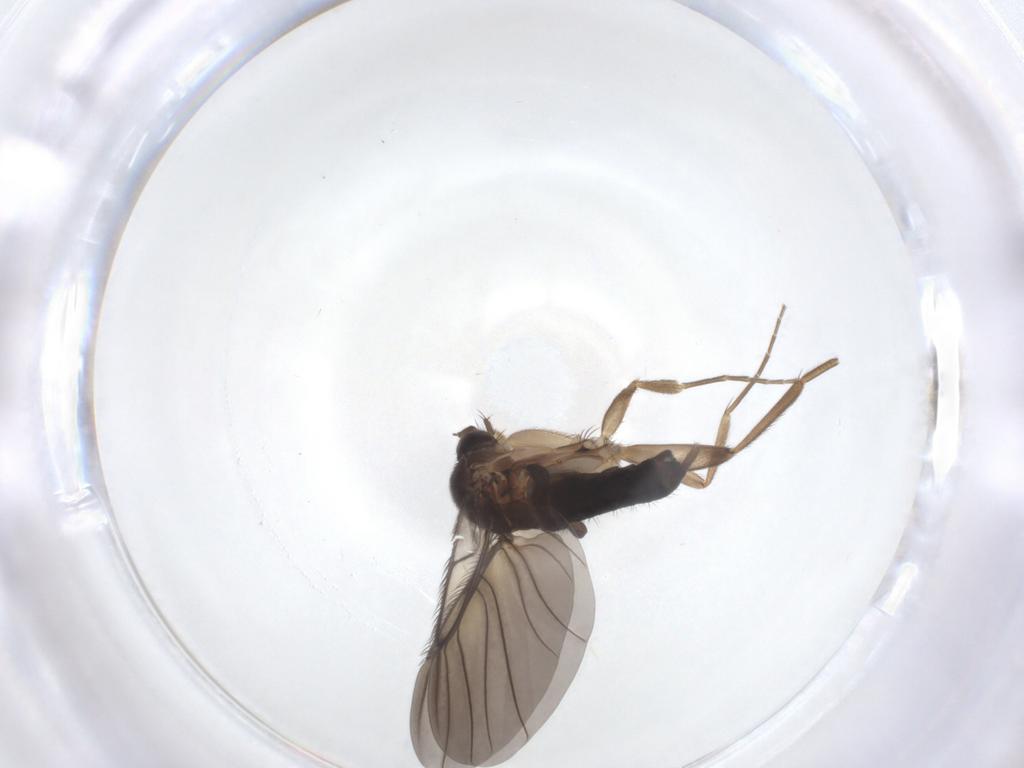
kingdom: Animalia
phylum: Arthropoda
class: Insecta
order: Diptera
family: Phoridae
